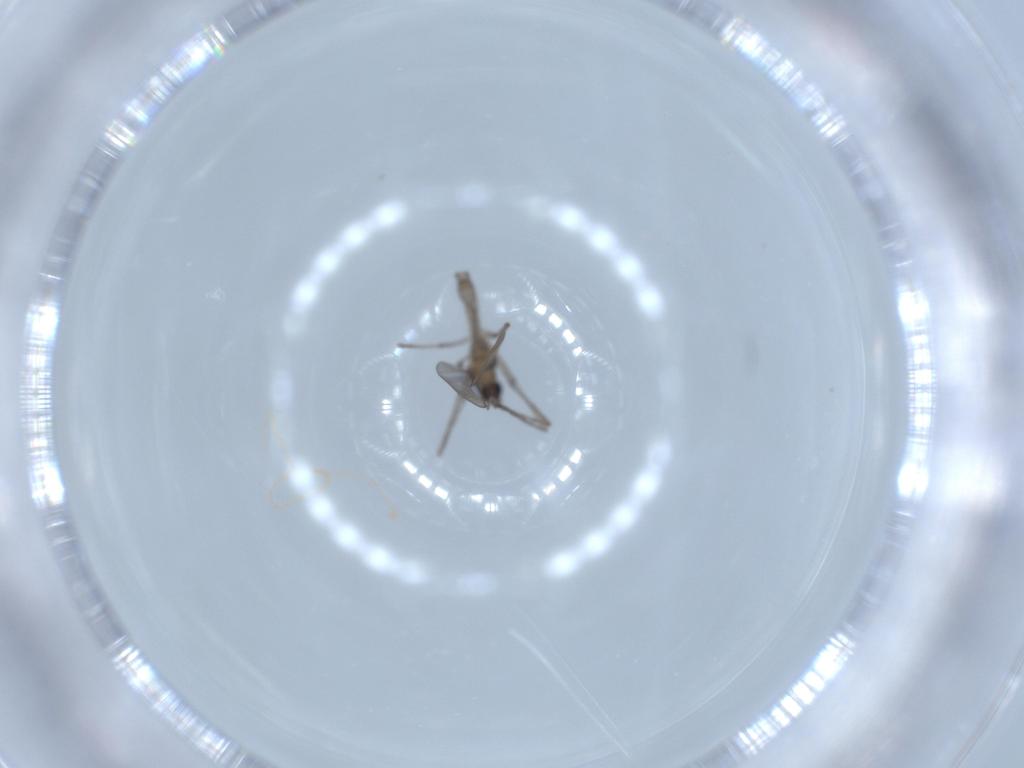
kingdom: Animalia
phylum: Arthropoda
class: Insecta
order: Diptera
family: Cecidomyiidae
